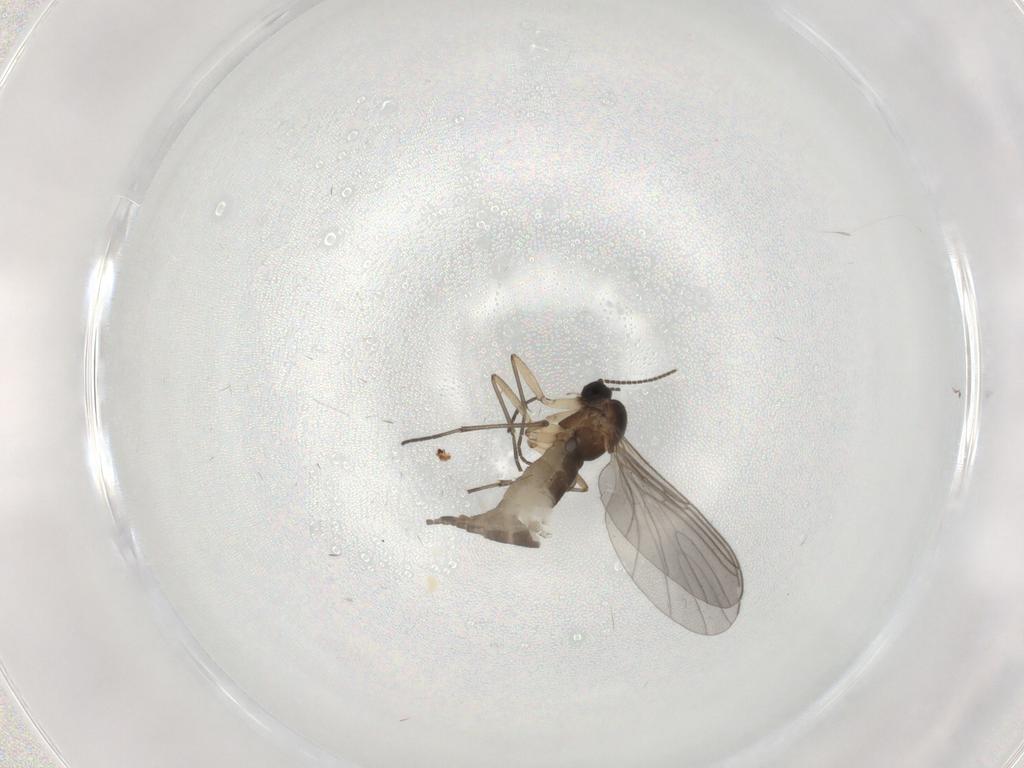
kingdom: Animalia
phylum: Arthropoda
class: Insecta
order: Diptera
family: Sciaridae
